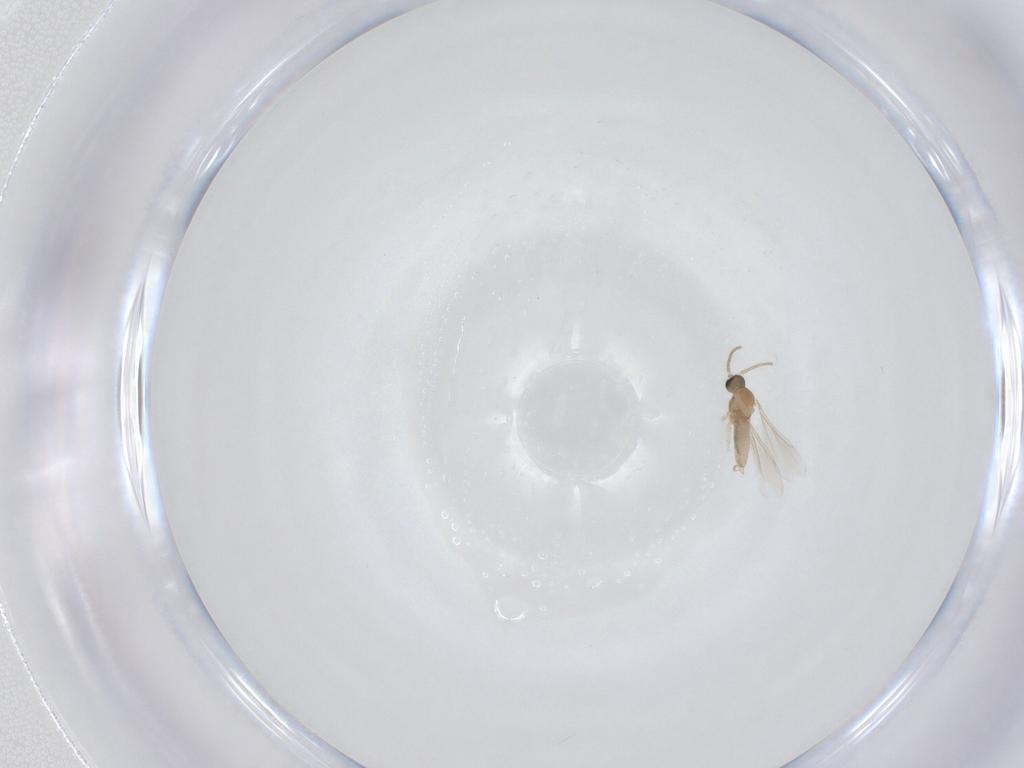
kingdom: Animalia
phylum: Arthropoda
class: Insecta
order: Diptera
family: Cecidomyiidae
